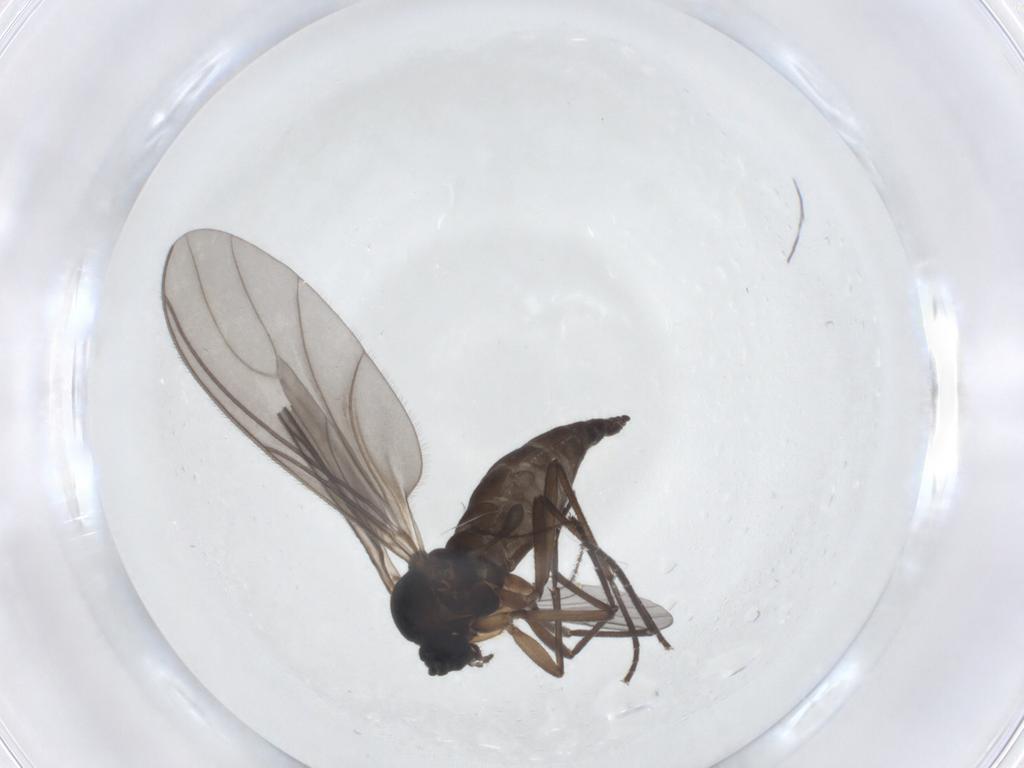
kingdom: Animalia
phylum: Arthropoda
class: Insecta
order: Diptera
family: Sciaridae
